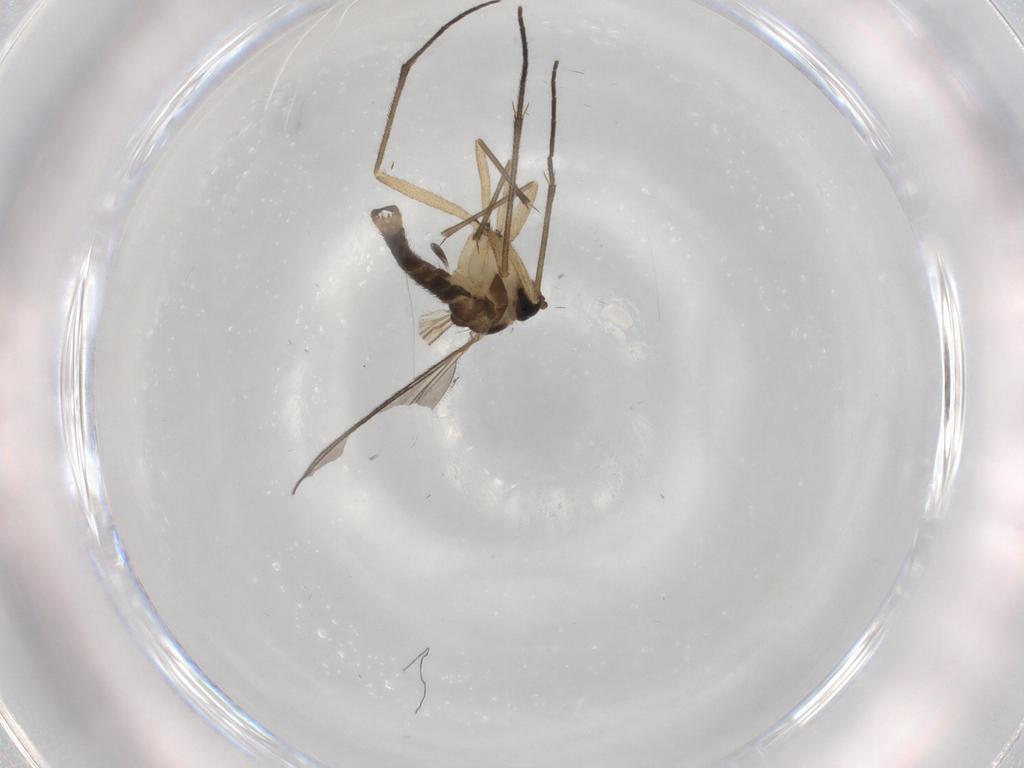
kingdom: Animalia
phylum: Arthropoda
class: Insecta
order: Diptera
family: Sciaridae
